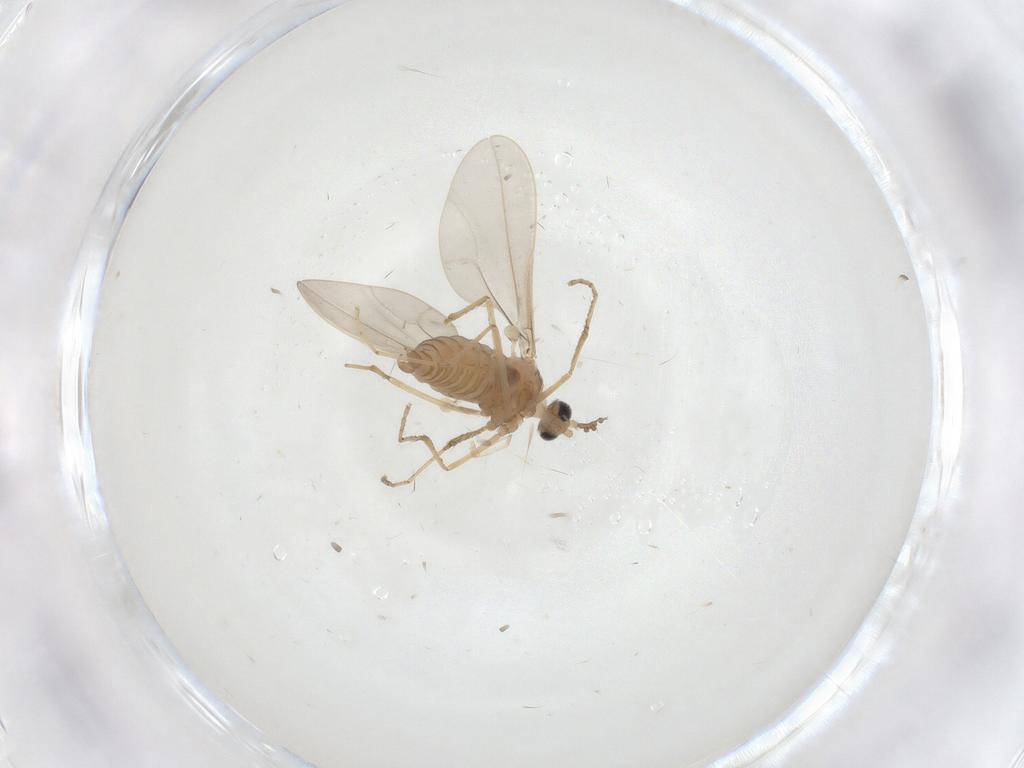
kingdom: Animalia
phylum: Arthropoda
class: Insecta
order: Diptera
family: Cecidomyiidae
